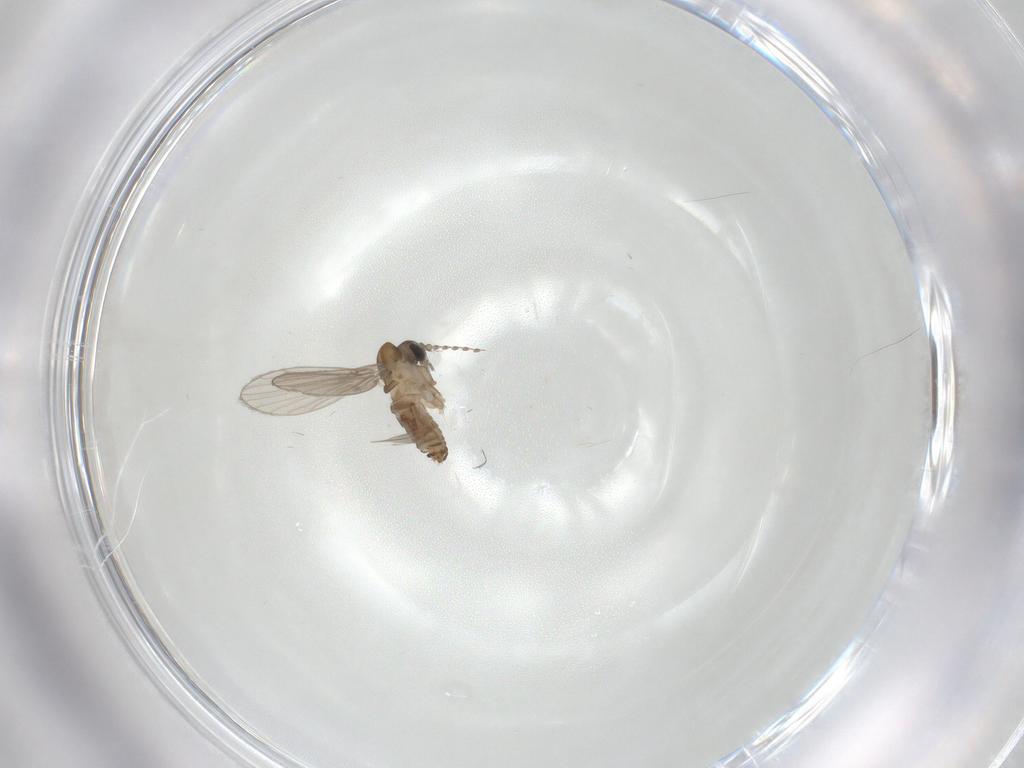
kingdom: Animalia
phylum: Arthropoda
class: Insecta
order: Diptera
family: Psychodidae
